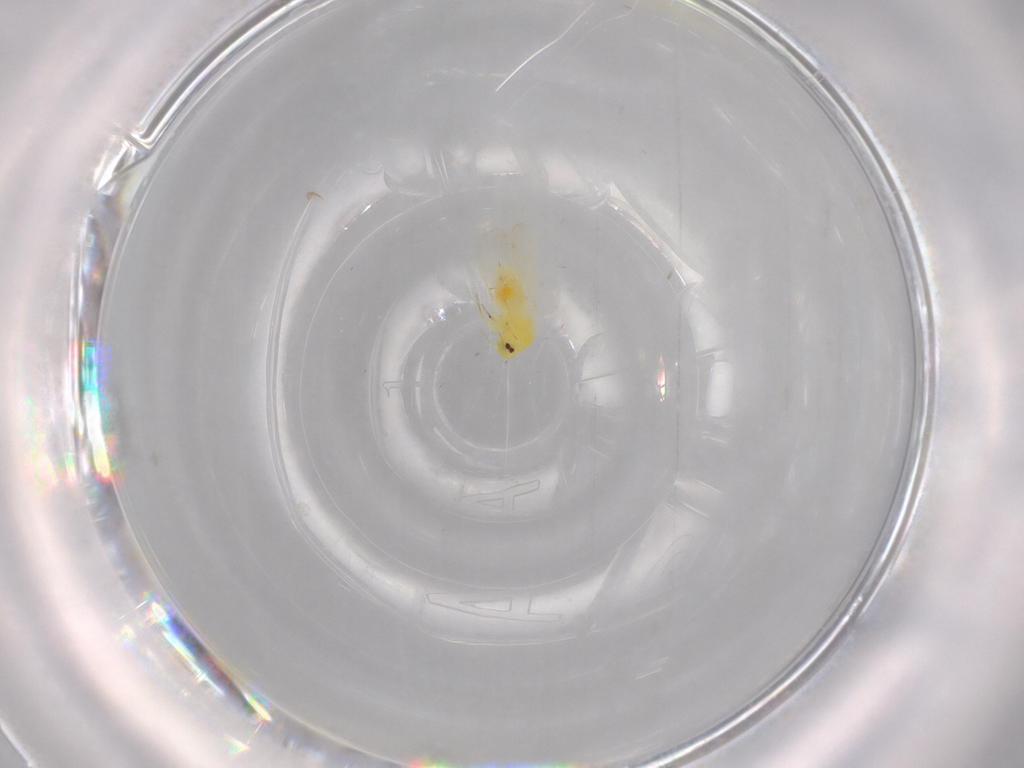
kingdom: Animalia
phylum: Arthropoda
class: Insecta
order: Hemiptera
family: Aleyrodidae
